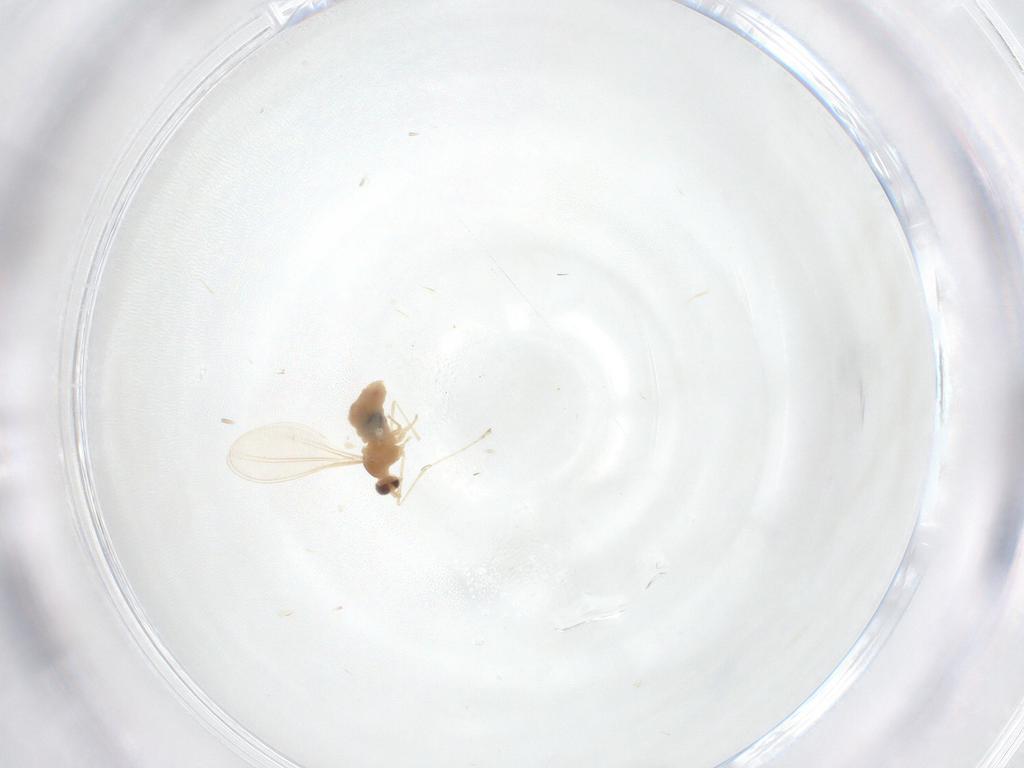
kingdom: Animalia
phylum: Arthropoda
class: Insecta
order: Diptera
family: Cecidomyiidae
